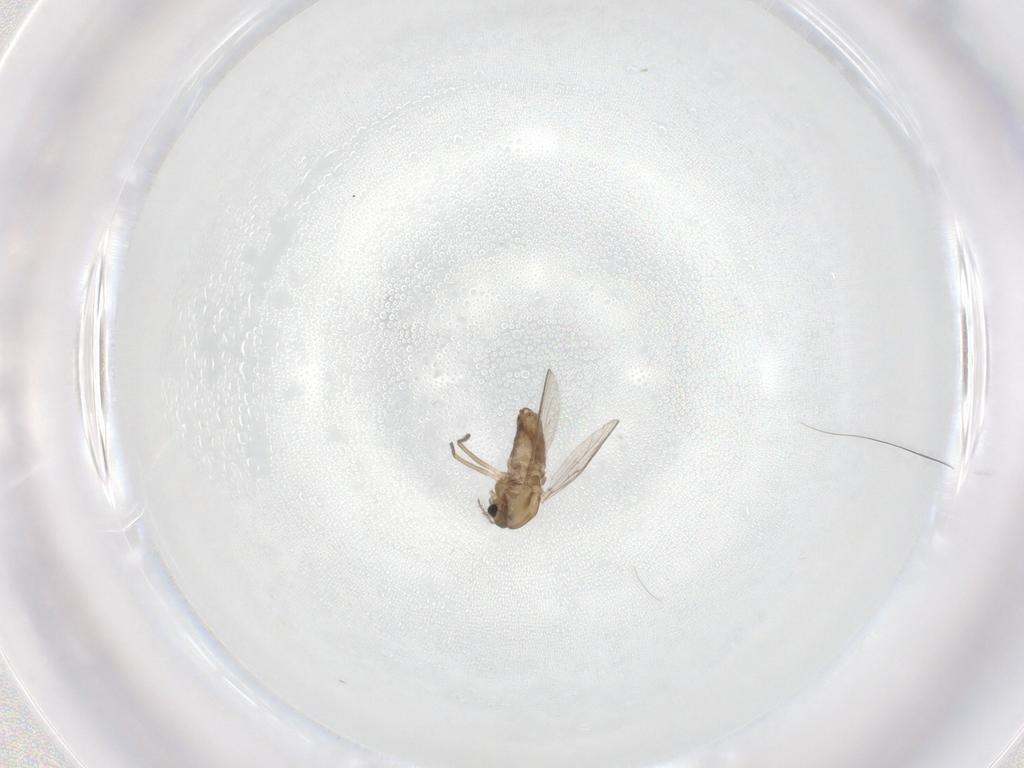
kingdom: Animalia
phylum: Arthropoda
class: Insecta
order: Diptera
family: Chironomidae
